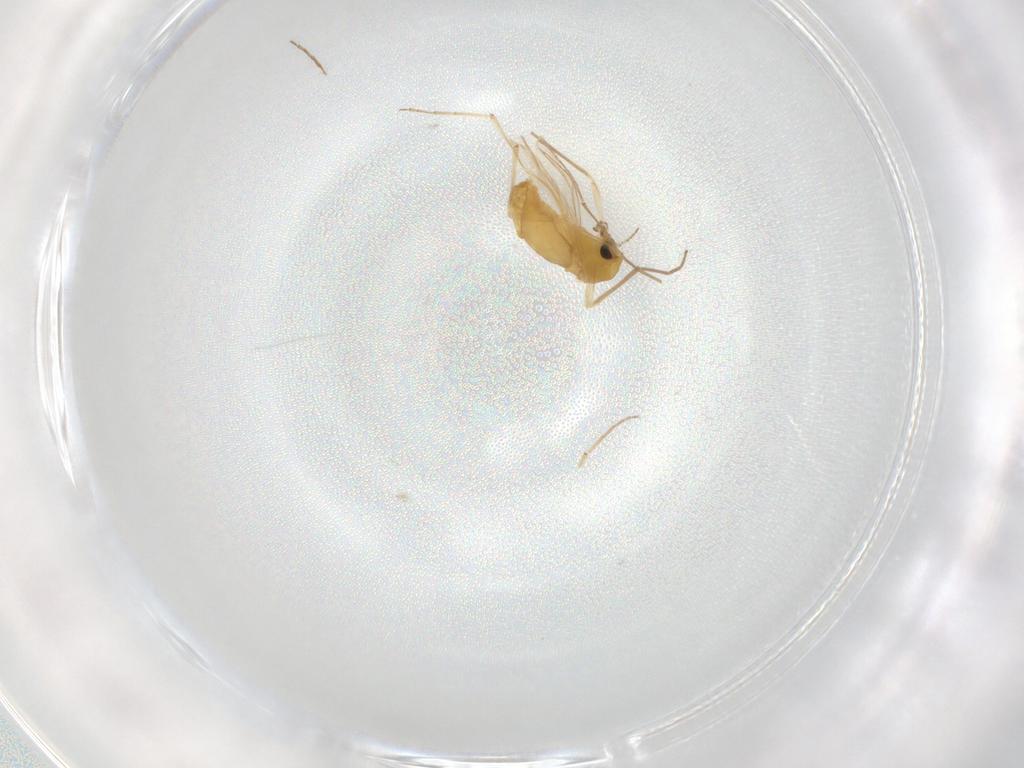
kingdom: Animalia
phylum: Arthropoda
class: Insecta
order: Diptera
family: Chironomidae
